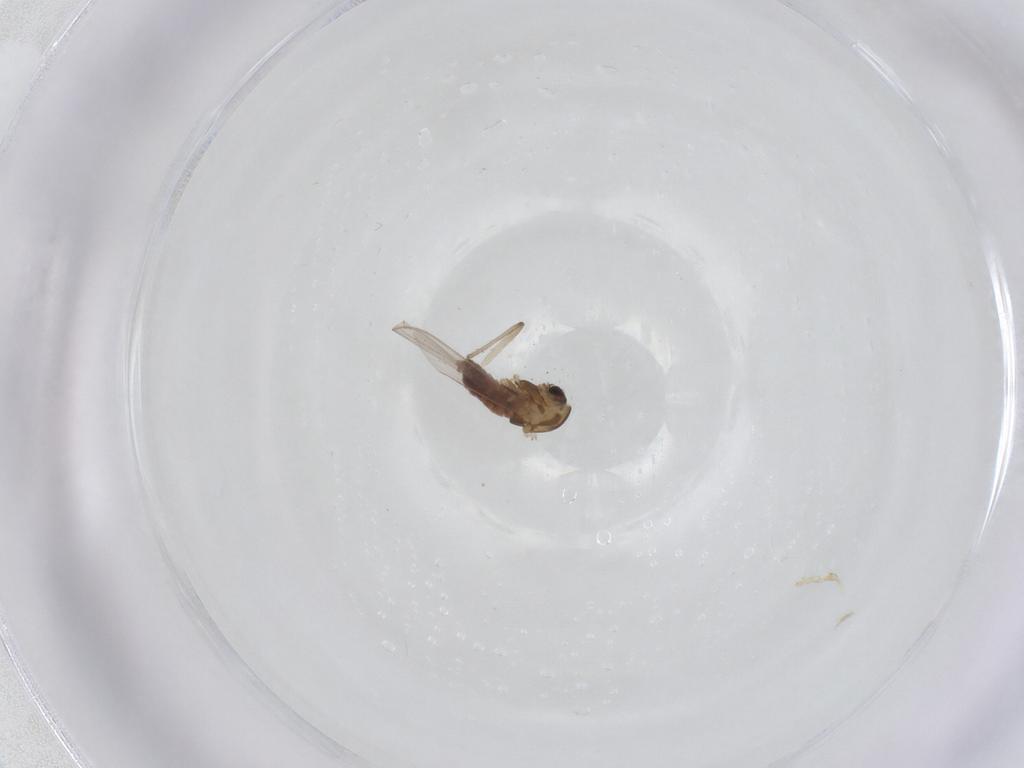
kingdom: Animalia
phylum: Arthropoda
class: Insecta
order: Diptera
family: Chironomidae
